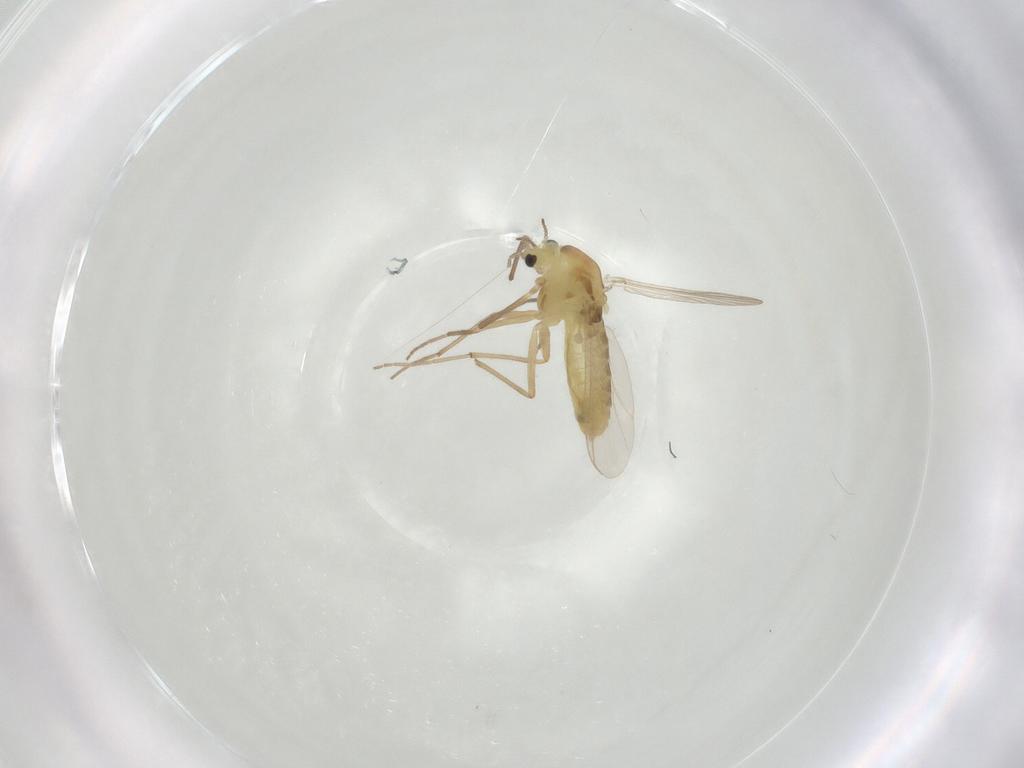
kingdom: Animalia
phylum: Arthropoda
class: Insecta
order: Diptera
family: Chironomidae
